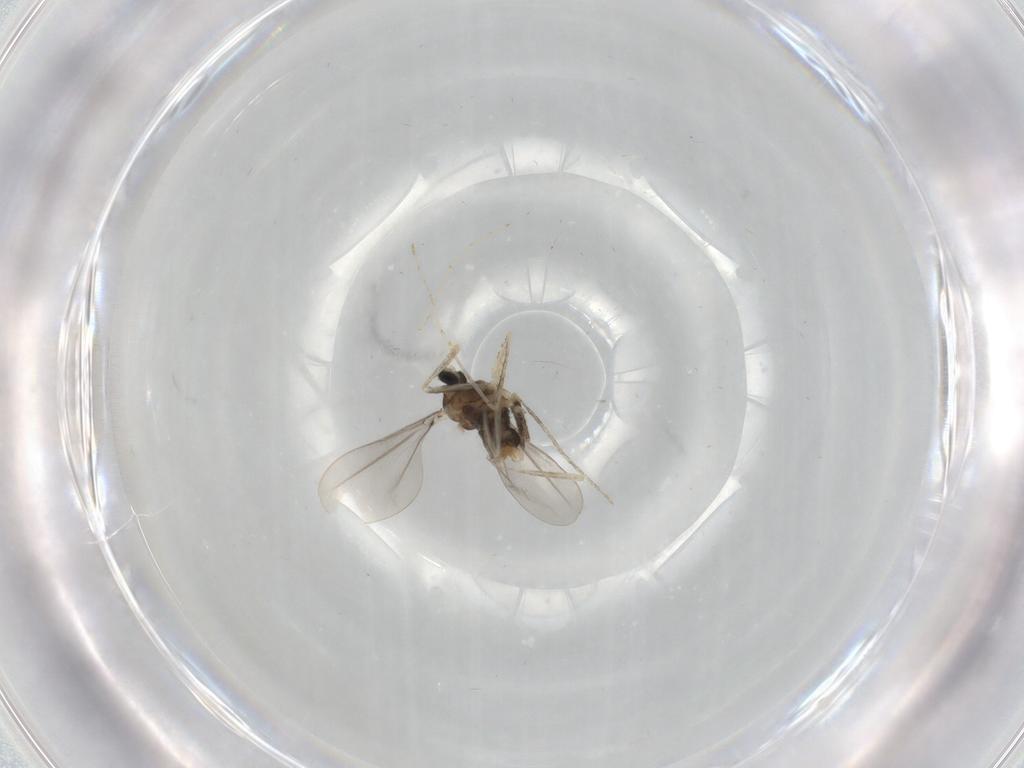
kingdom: Animalia
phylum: Arthropoda
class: Insecta
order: Diptera
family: Cecidomyiidae
